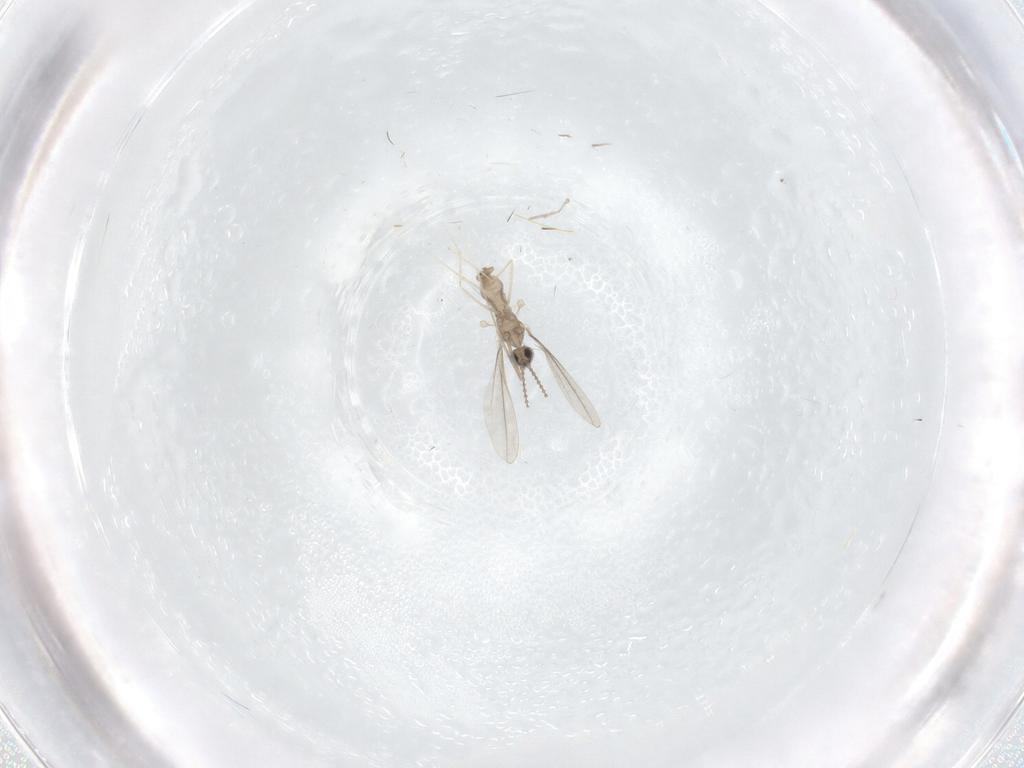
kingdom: Animalia
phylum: Arthropoda
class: Insecta
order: Diptera
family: Cecidomyiidae
